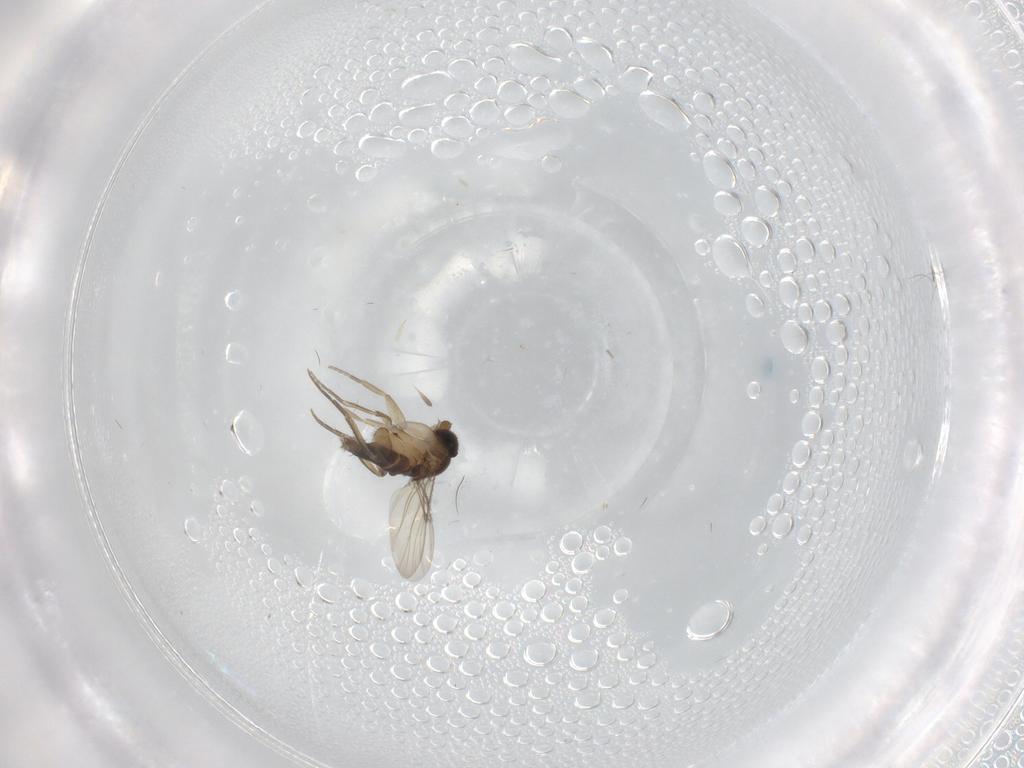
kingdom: Animalia
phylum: Arthropoda
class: Insecta
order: Diptera
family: Phoridae
